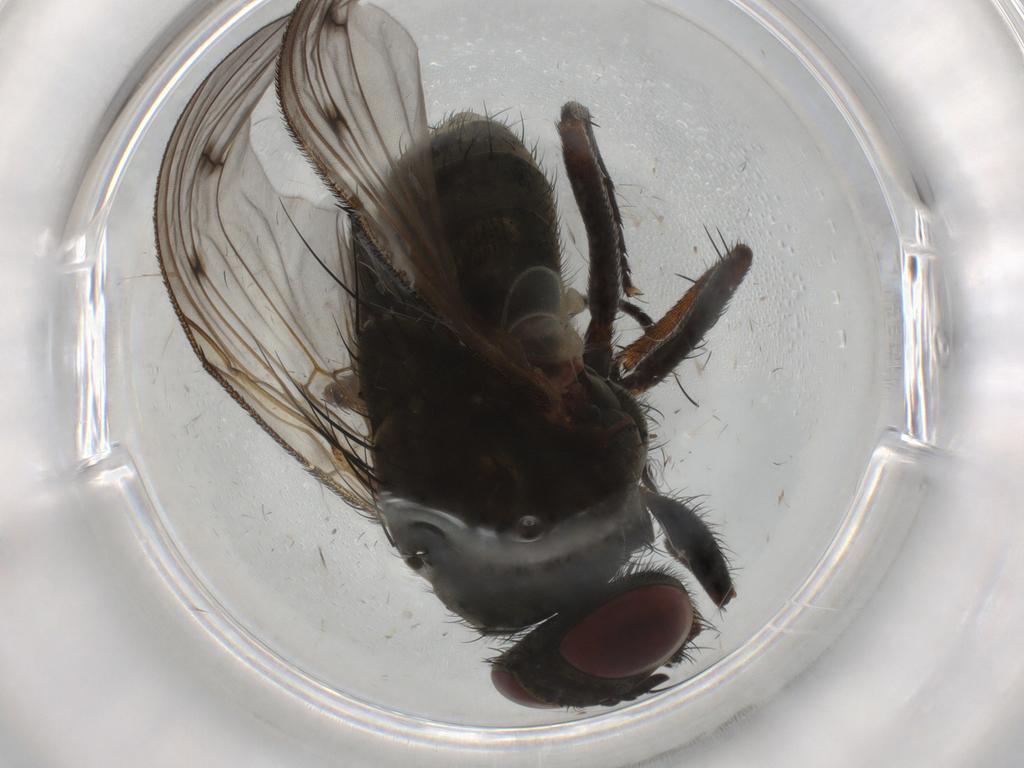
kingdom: Animalia
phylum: Arthropoda
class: Insecta
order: Diptera
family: Muscidae
